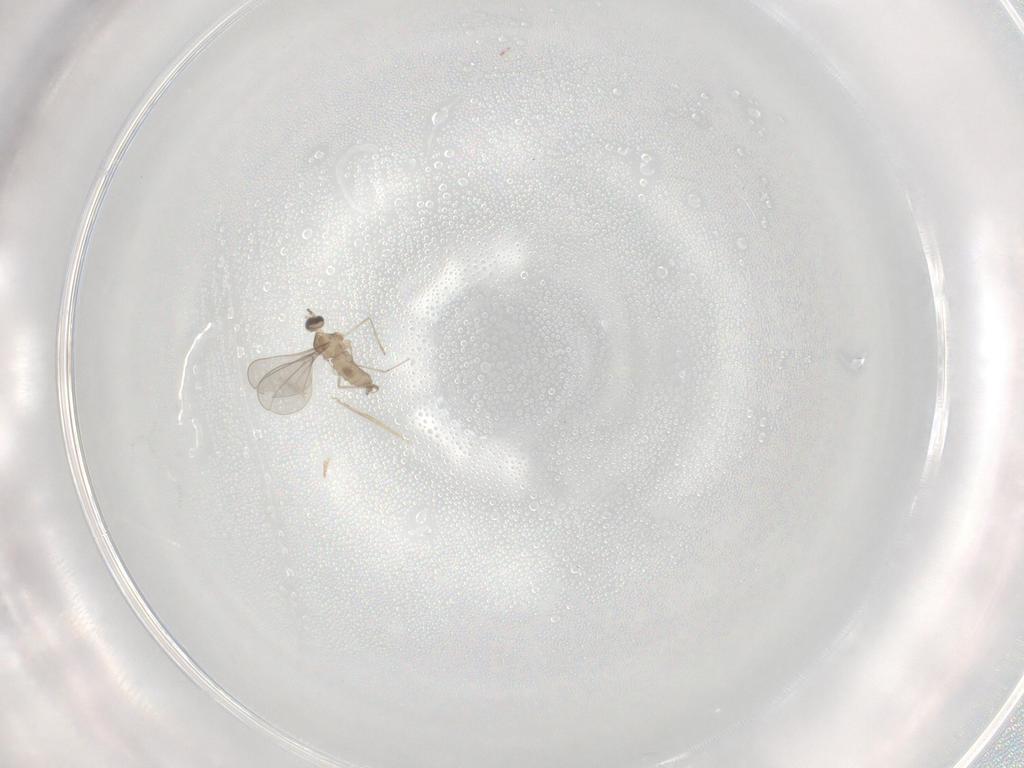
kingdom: Animalia
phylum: Arthropoda
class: Insecta
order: Diptera
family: Cecidomyiidae
